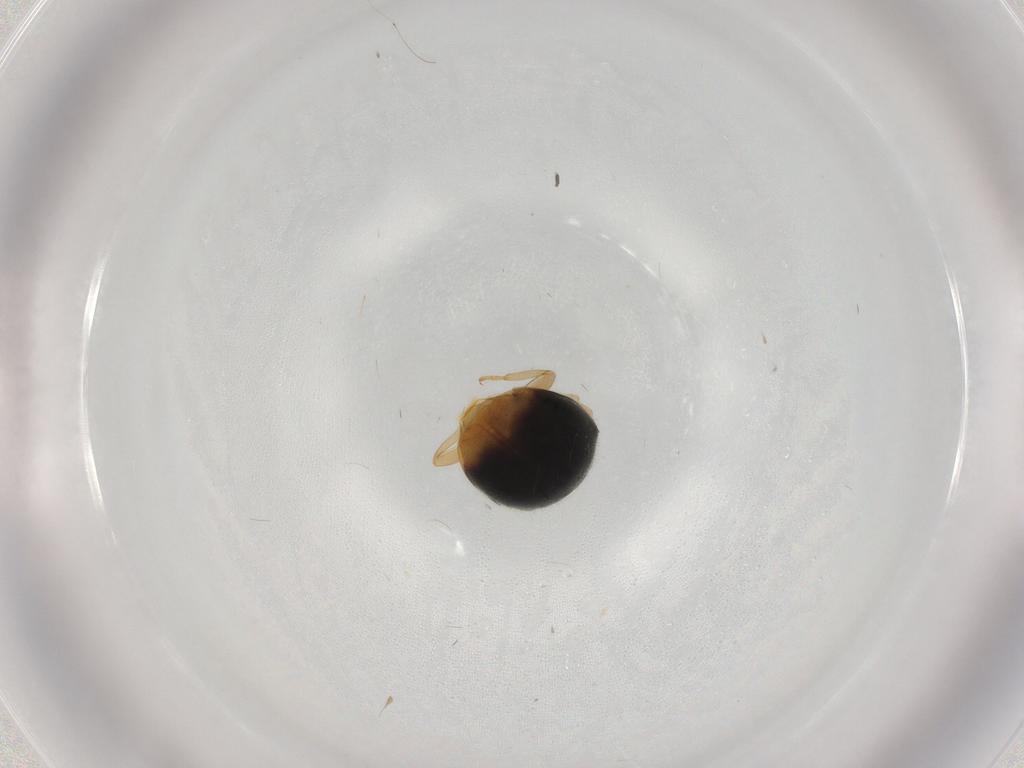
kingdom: Animalia
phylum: Arthropoda
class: Insecta
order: Coleoptera
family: Coccinellidae
